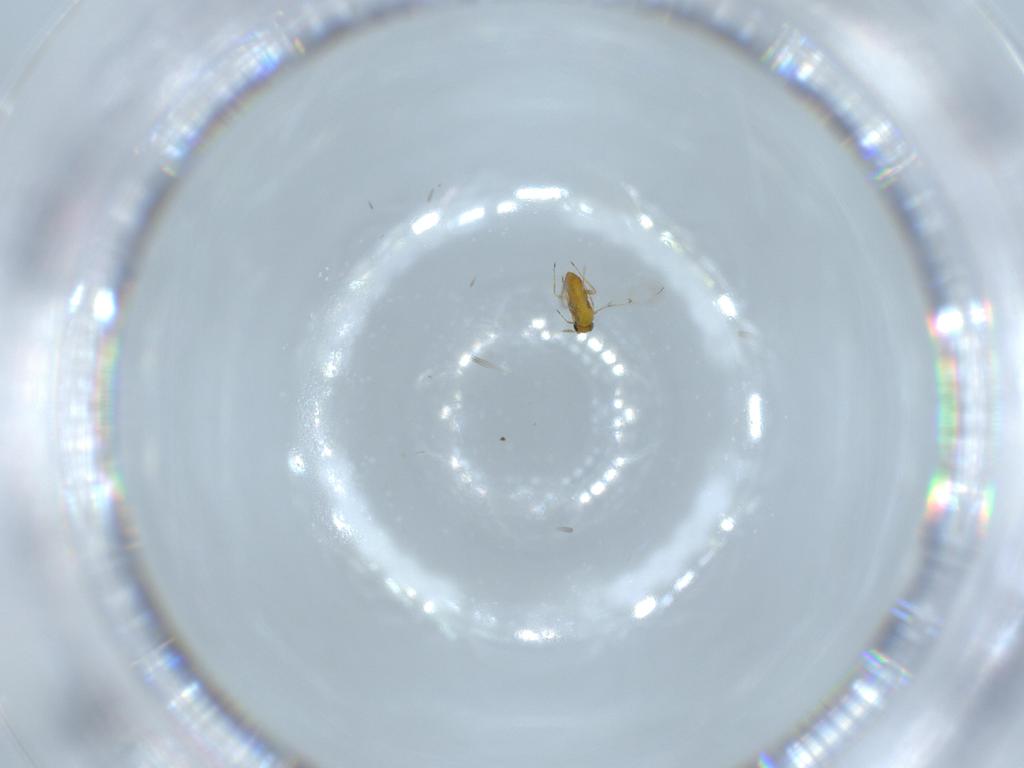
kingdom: Animalia
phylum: Arthropoda
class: Insecta
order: Hymenoptera
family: Trichogrammatidae
